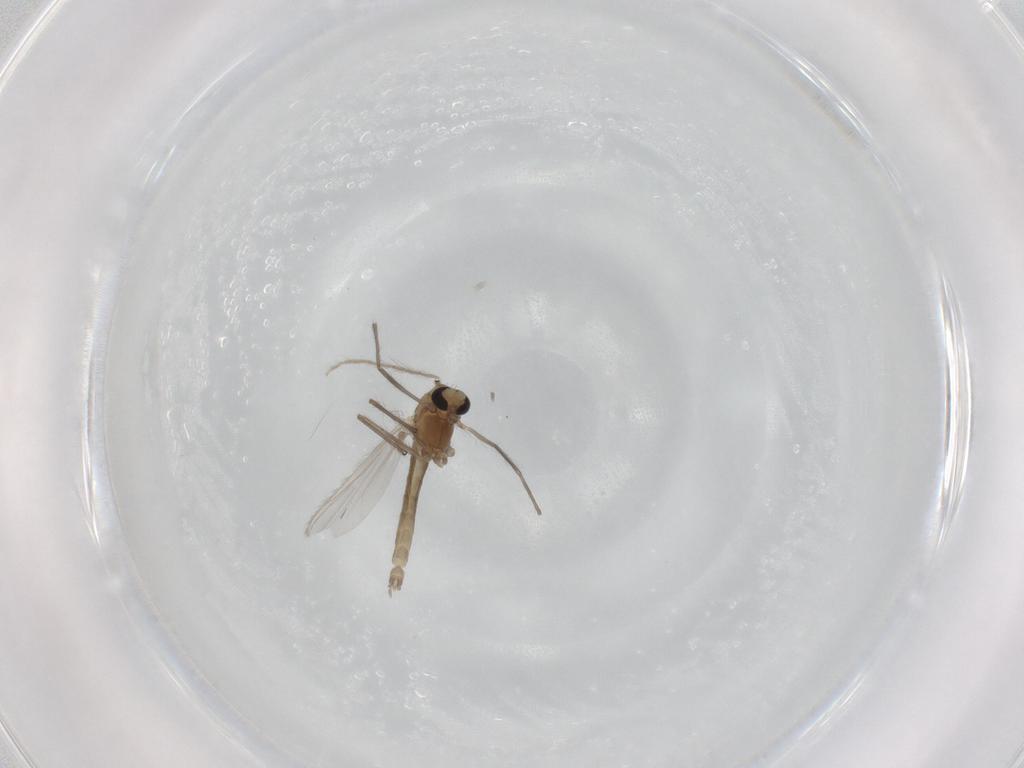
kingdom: Animalia
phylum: Arthropoda
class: Insecta
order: Diptera
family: Chironomidae
